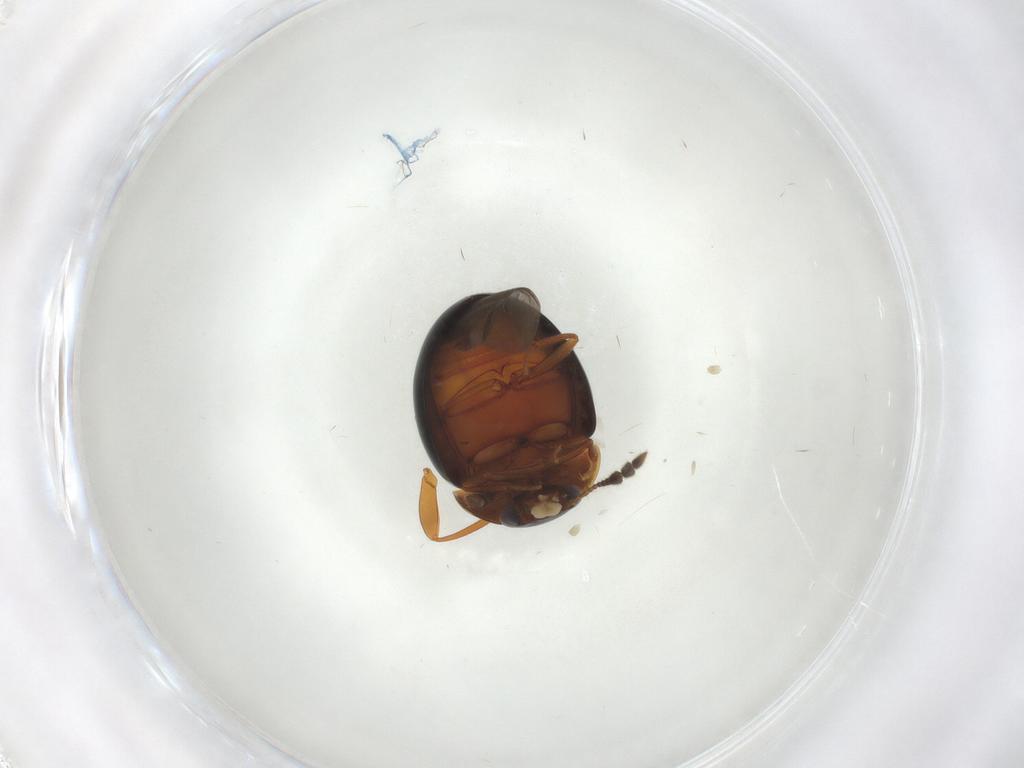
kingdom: Animalia
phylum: Arthropoda
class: Insecta
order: Coleoptera
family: Leiodidae
